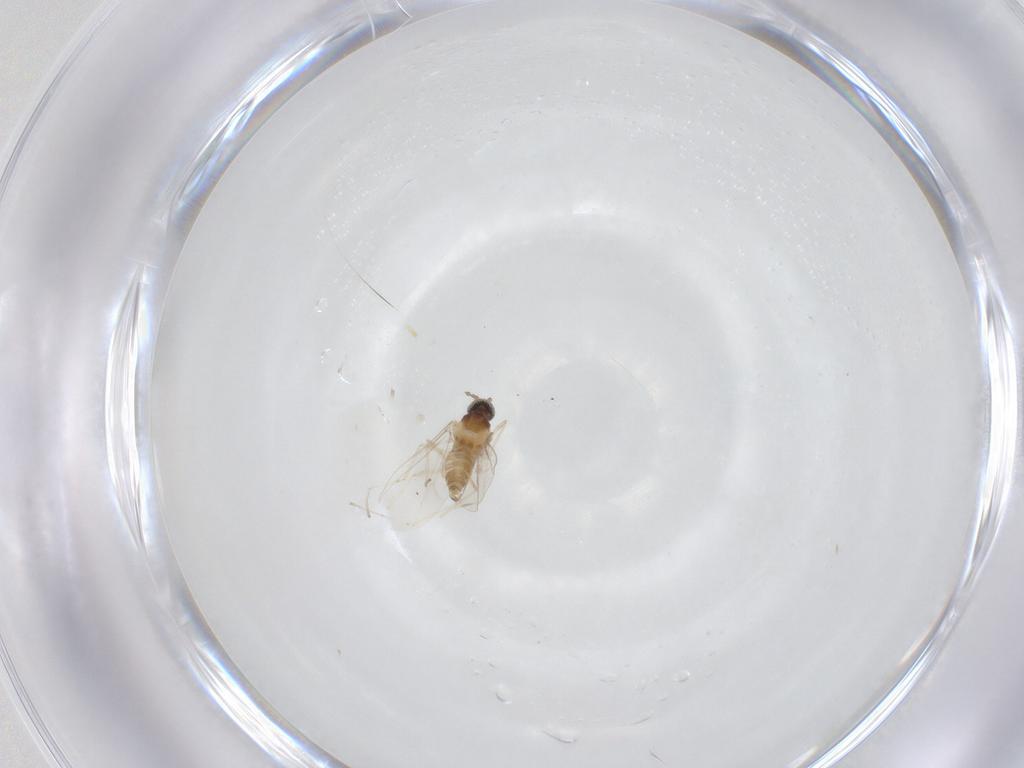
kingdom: Animalia
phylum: Arthropoda
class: Insecta
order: Diptera
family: Cecidomyiidae
